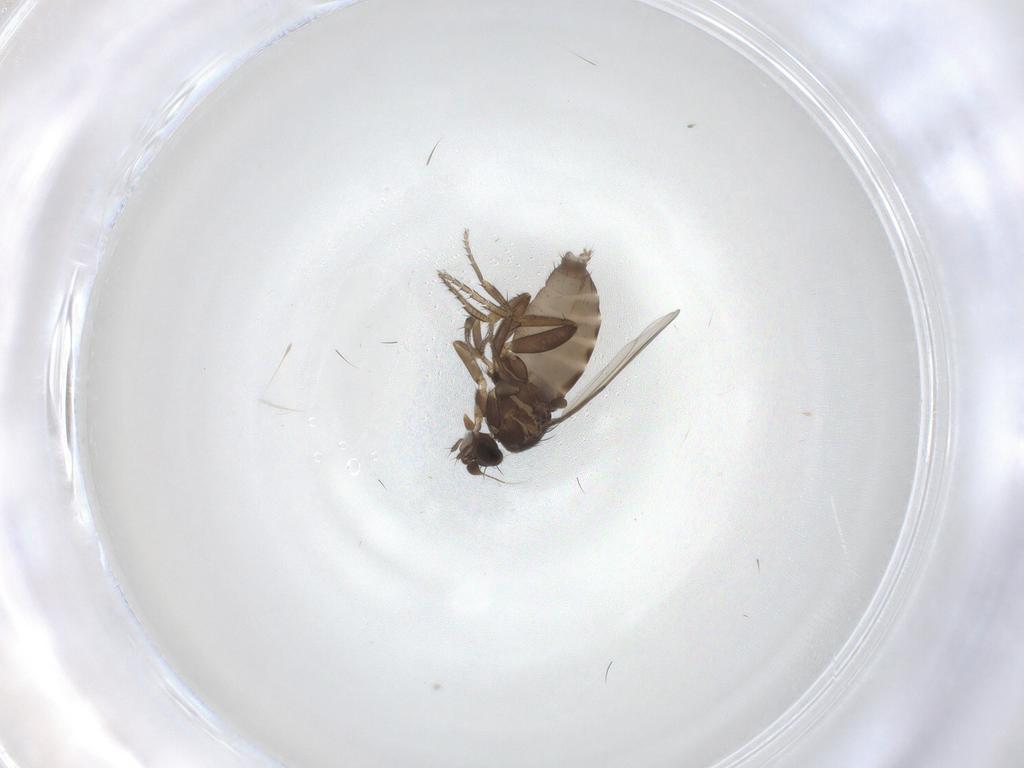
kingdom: Animalia
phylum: Arthropoda
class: Insecta
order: Diptera
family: Phoridae
